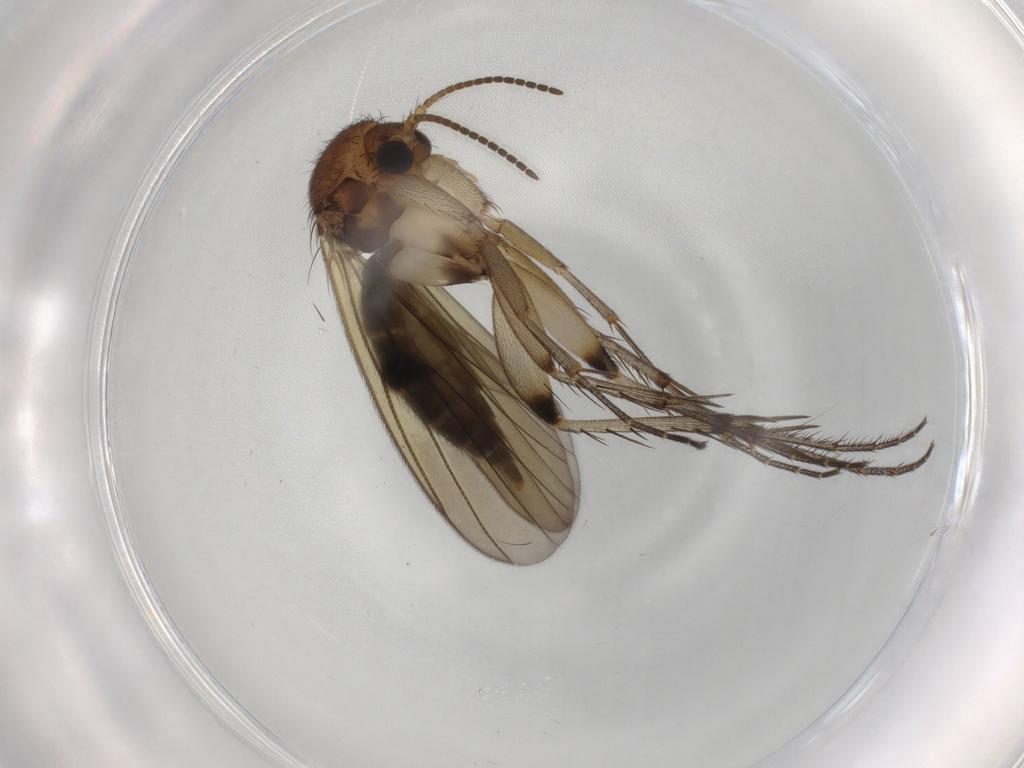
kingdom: Animalia
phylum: Arthropoda
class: Insecta
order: Diptera
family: Mycetophilidae
